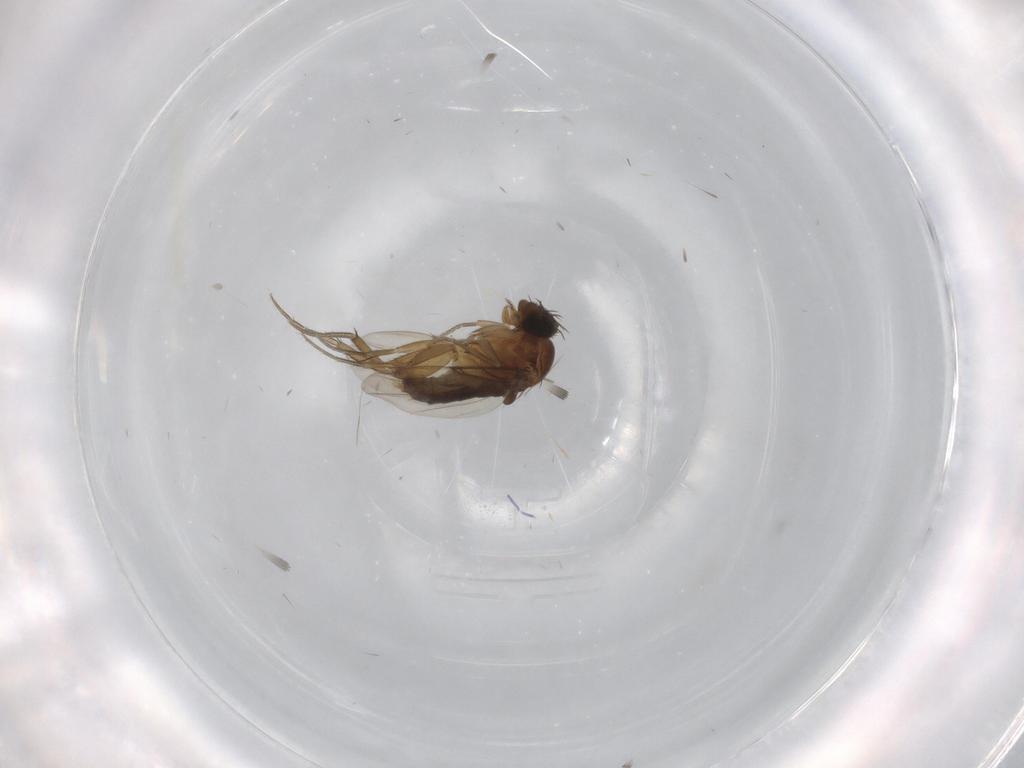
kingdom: Animalia
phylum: Arthropoda
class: Insecta
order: Diptera
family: Phoridae
